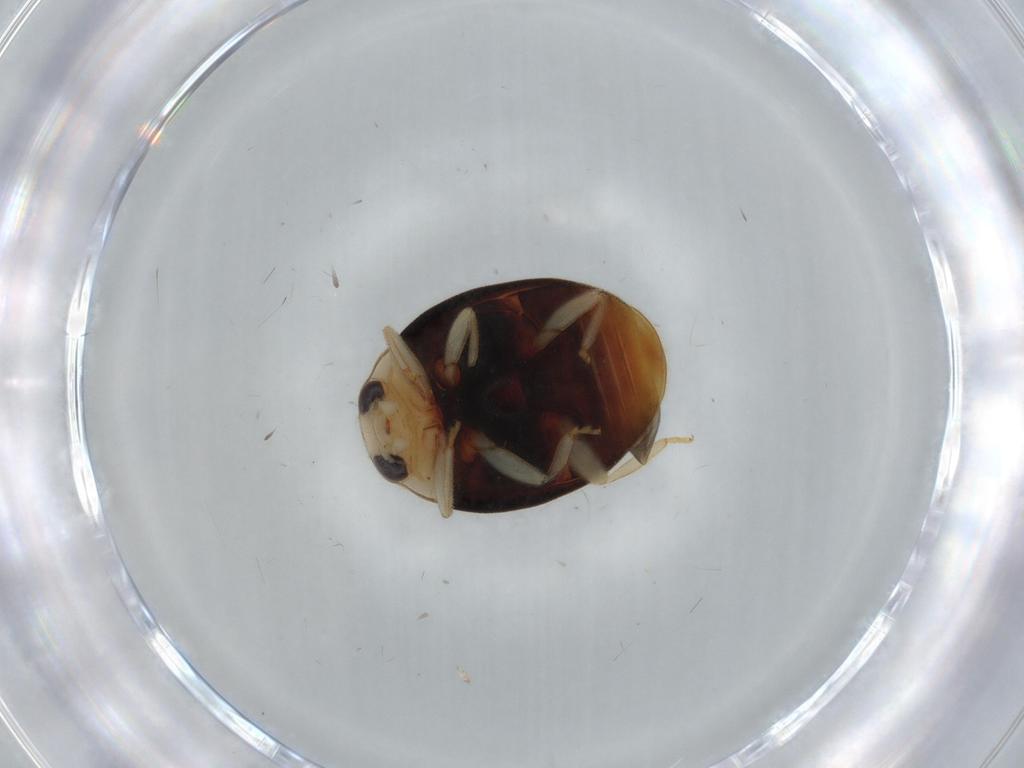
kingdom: Animalia
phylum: Arthropoda
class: Insecta
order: Coleoptera
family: Coccinellidae
